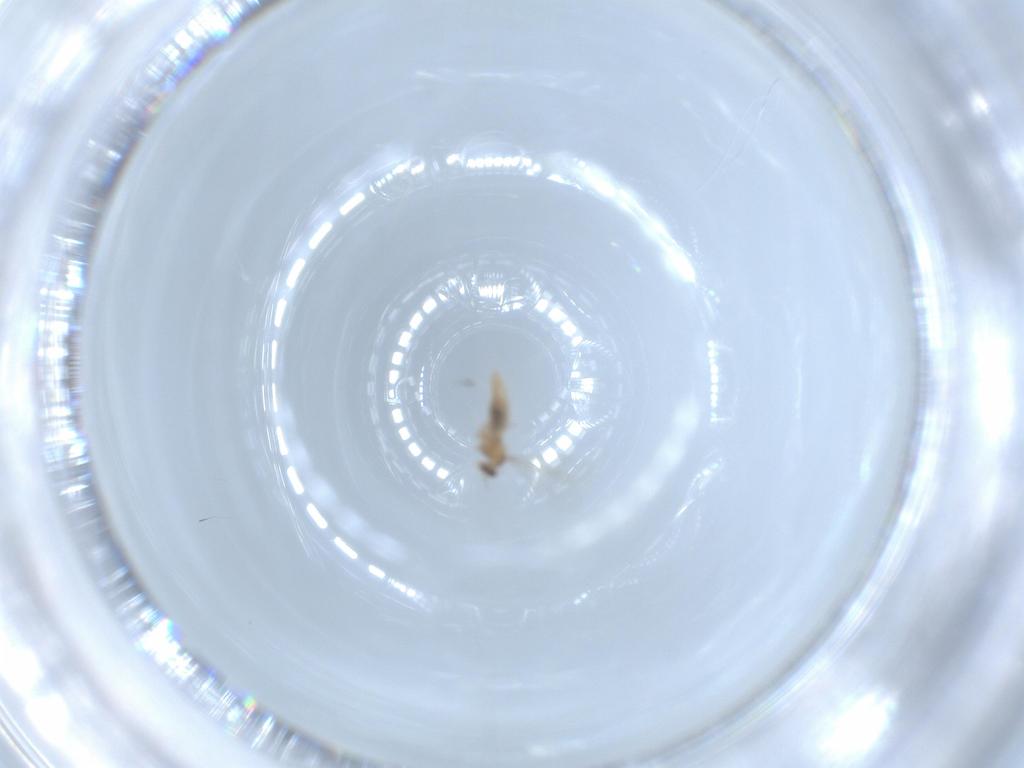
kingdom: Animalia
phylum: Arthropoda
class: Insecta
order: Diptera
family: Cecidomyiidae
